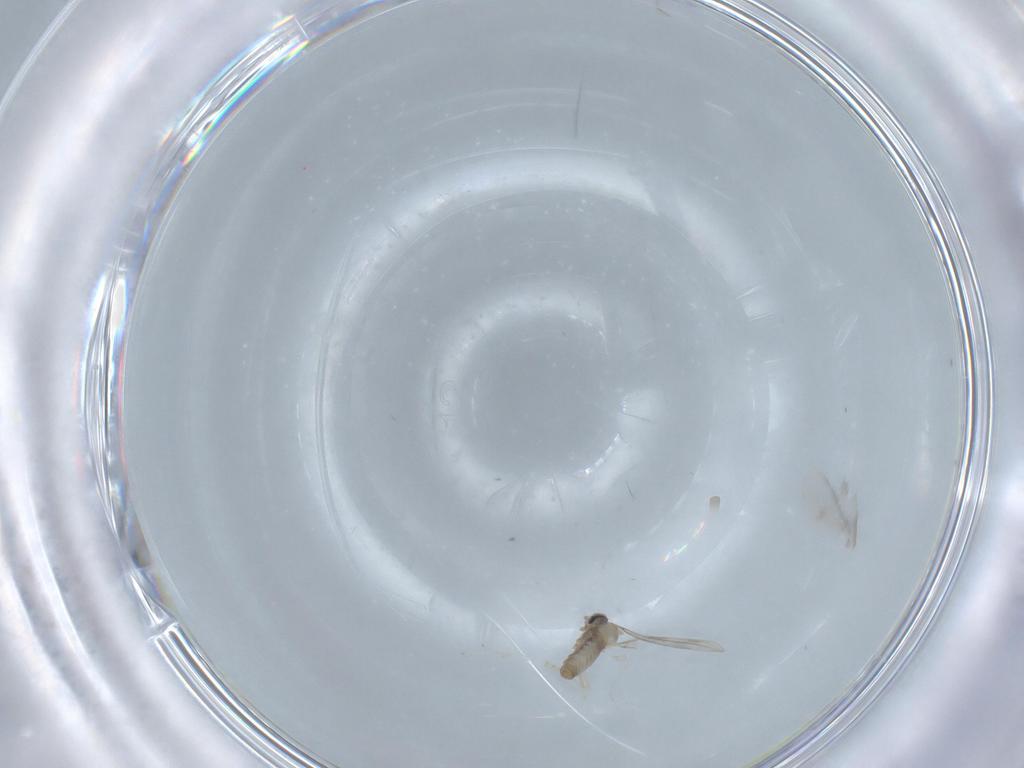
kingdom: Animalia
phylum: Arthropoda
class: Insecta
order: Diptera
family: Cecidomyiidae
